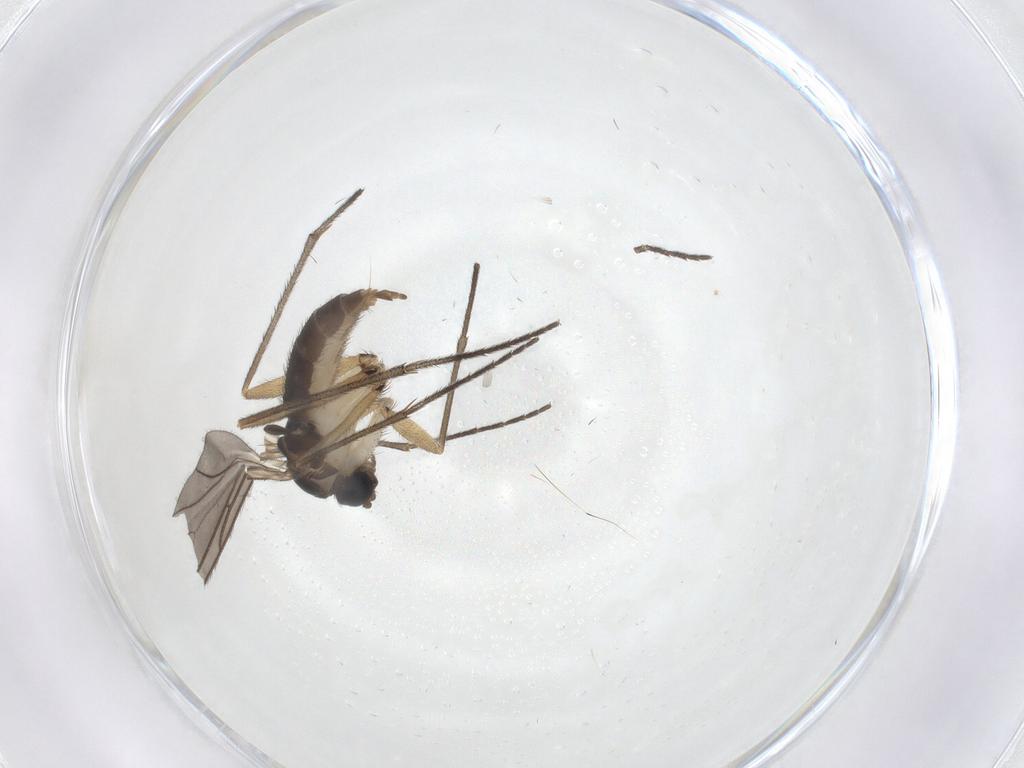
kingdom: Animalia
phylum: Arthropoda
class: Insecta
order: Diptera
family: Sciaridae
